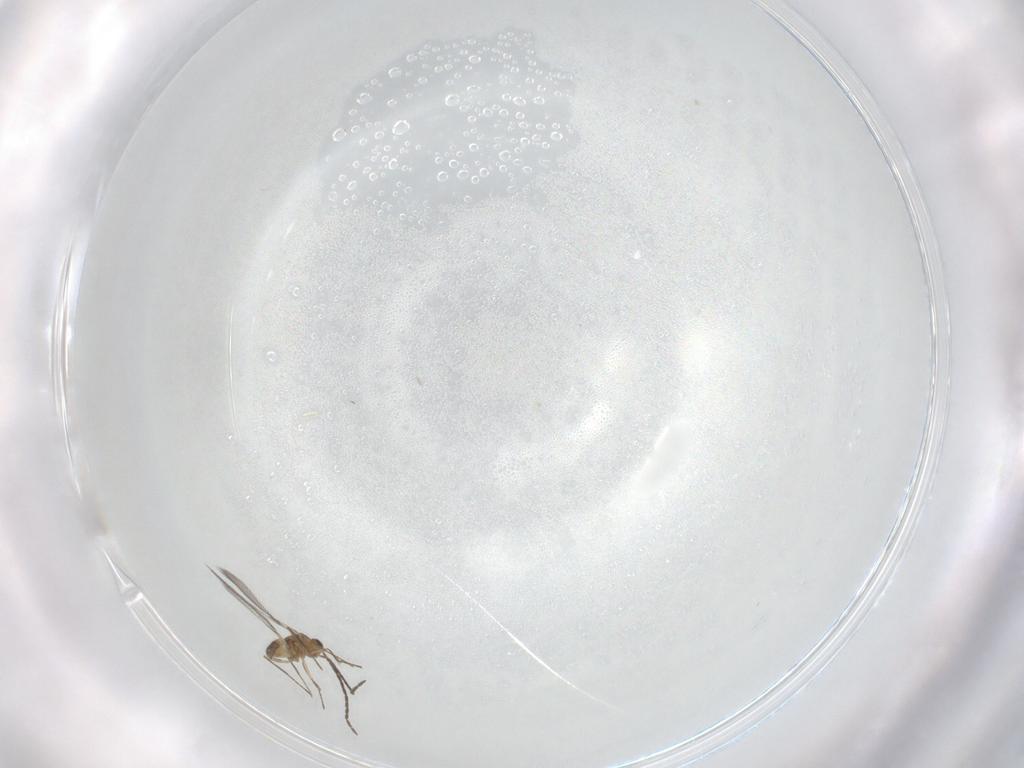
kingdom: Animalia
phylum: Arthropoda
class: Insecta
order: Hymenoptera
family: Mymaridae
